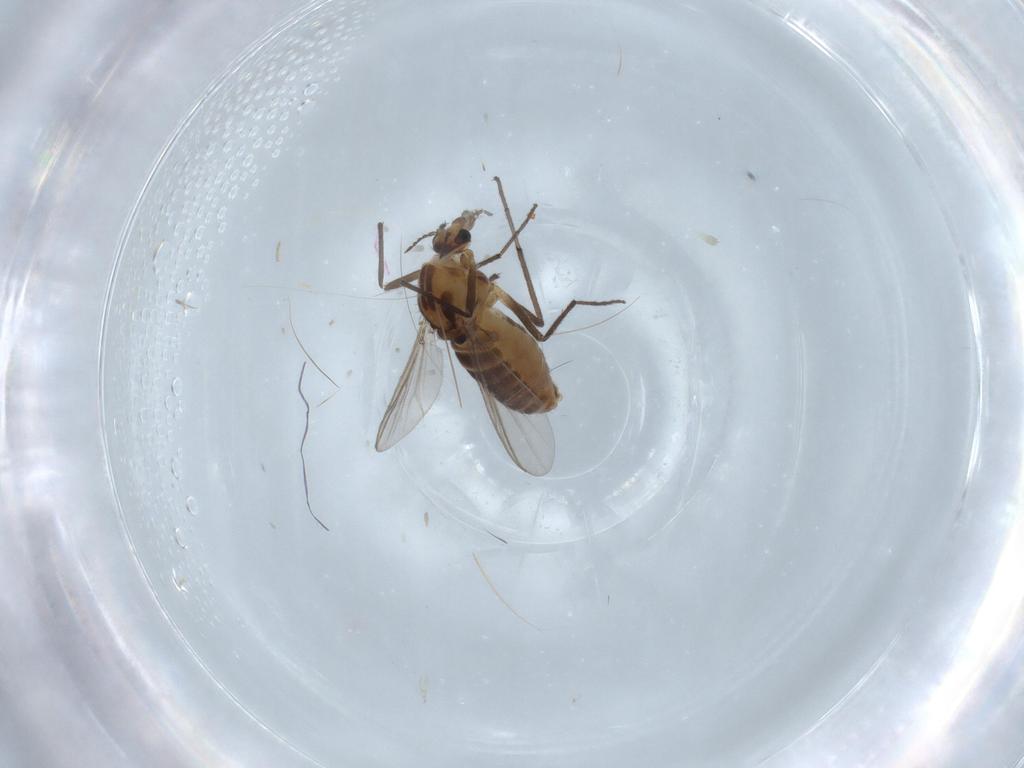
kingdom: Animalia
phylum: Arthropoda
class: Insecta
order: Diptera
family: Chironomidae
